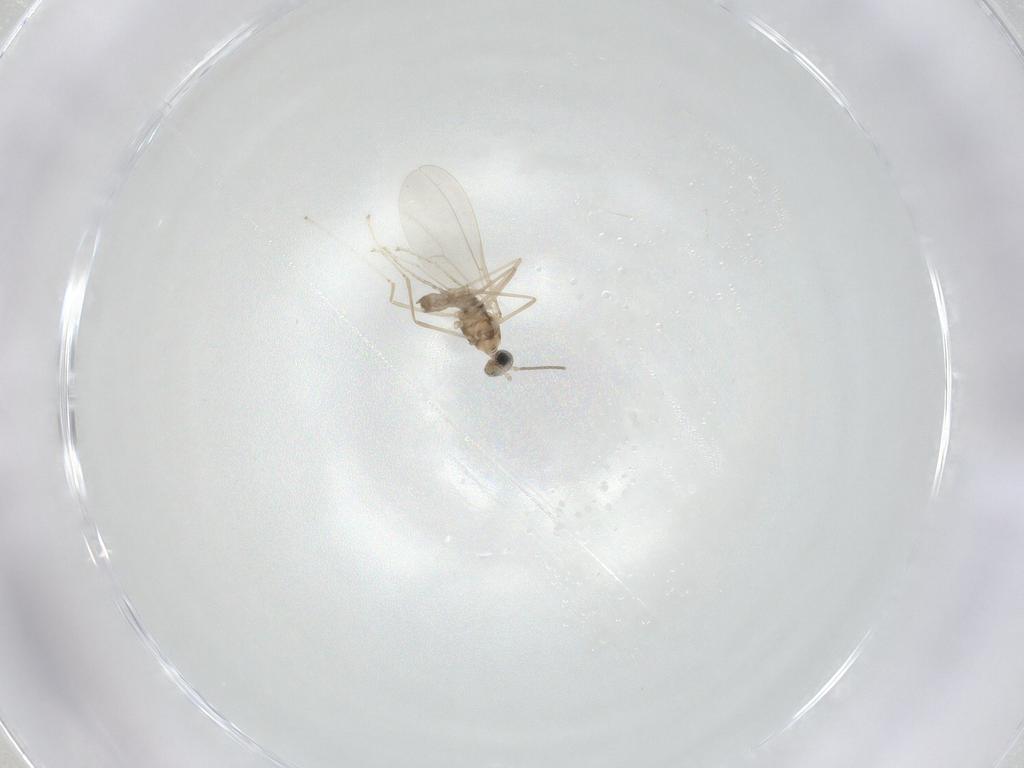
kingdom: Animalia
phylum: Arthropoda
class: Insecta
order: Diptera
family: Cecidomyiidae
